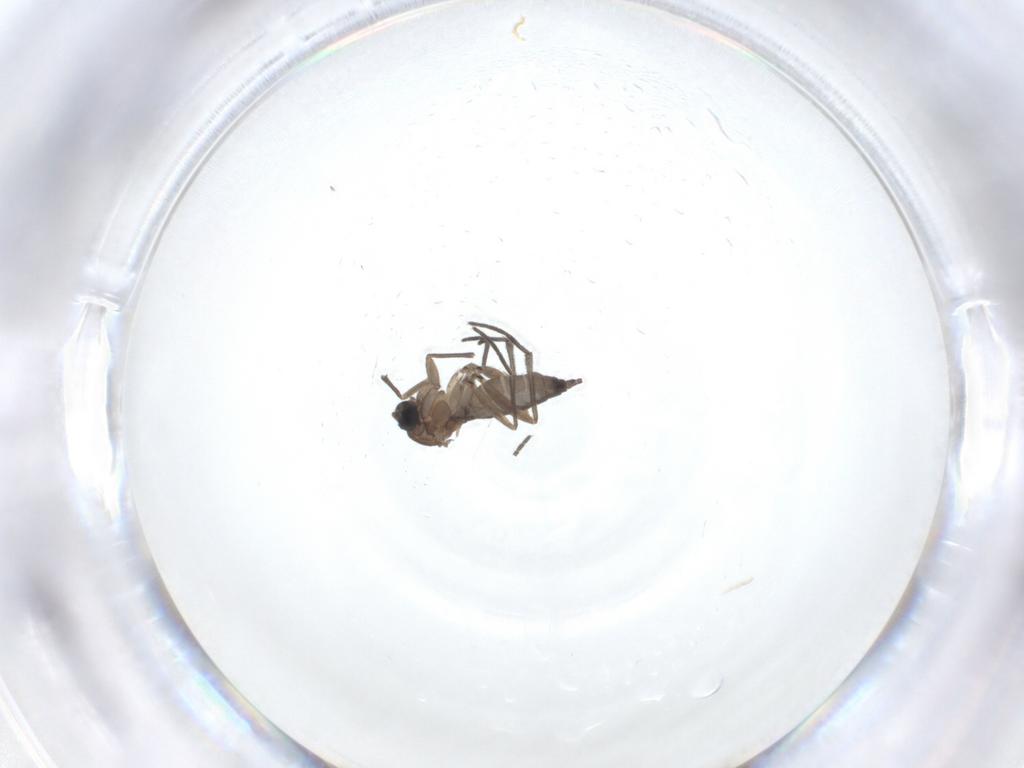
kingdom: Animalia
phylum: Arthropoda
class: Insecta
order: Diptera
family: Sciaridae
